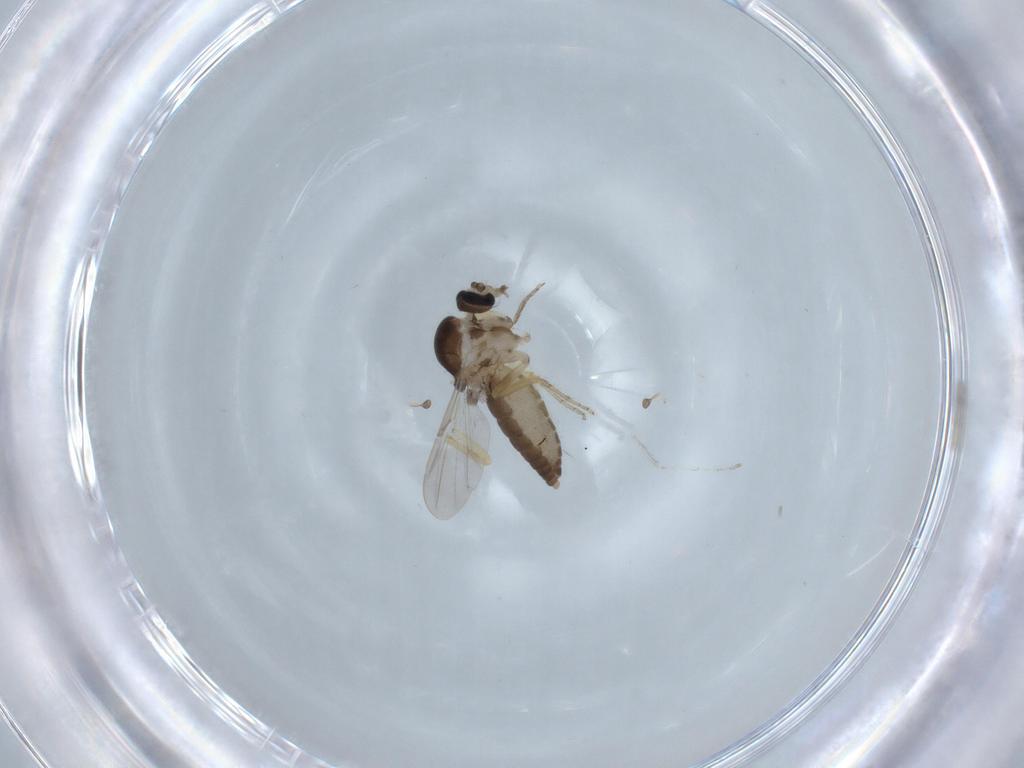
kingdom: Animalia
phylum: Arthropoda
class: Insecta
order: Diptera
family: Ceratopogonidae
